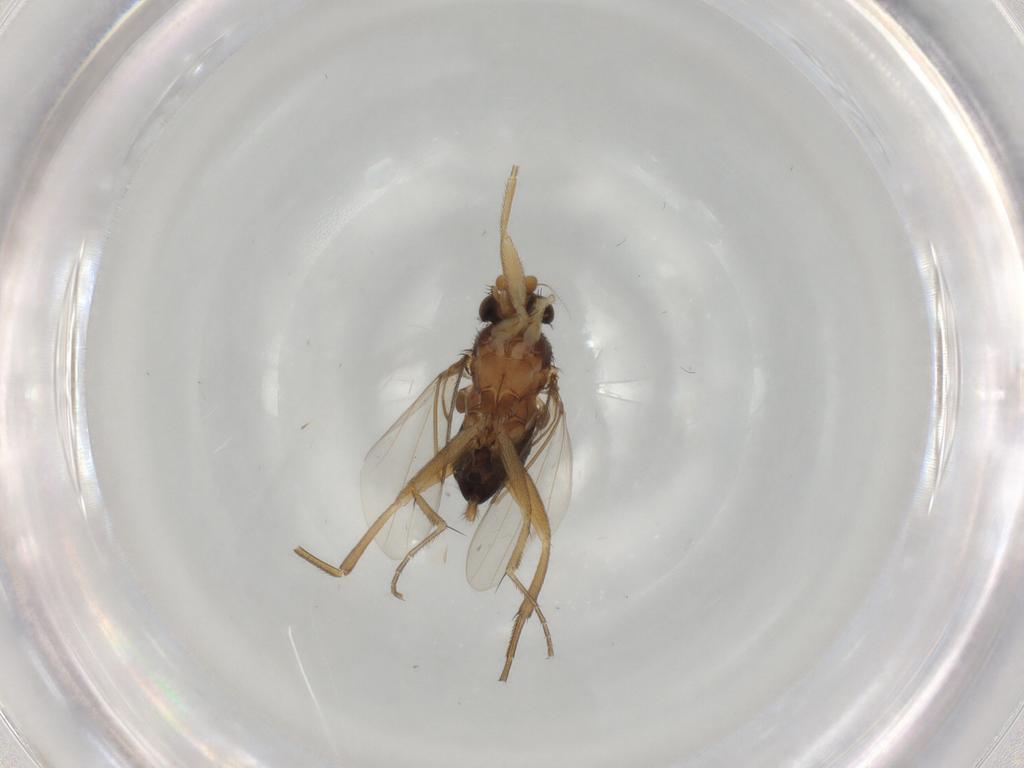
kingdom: Animalia
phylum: Arthropoda
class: Insecta
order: Diptera
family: Phoridae
